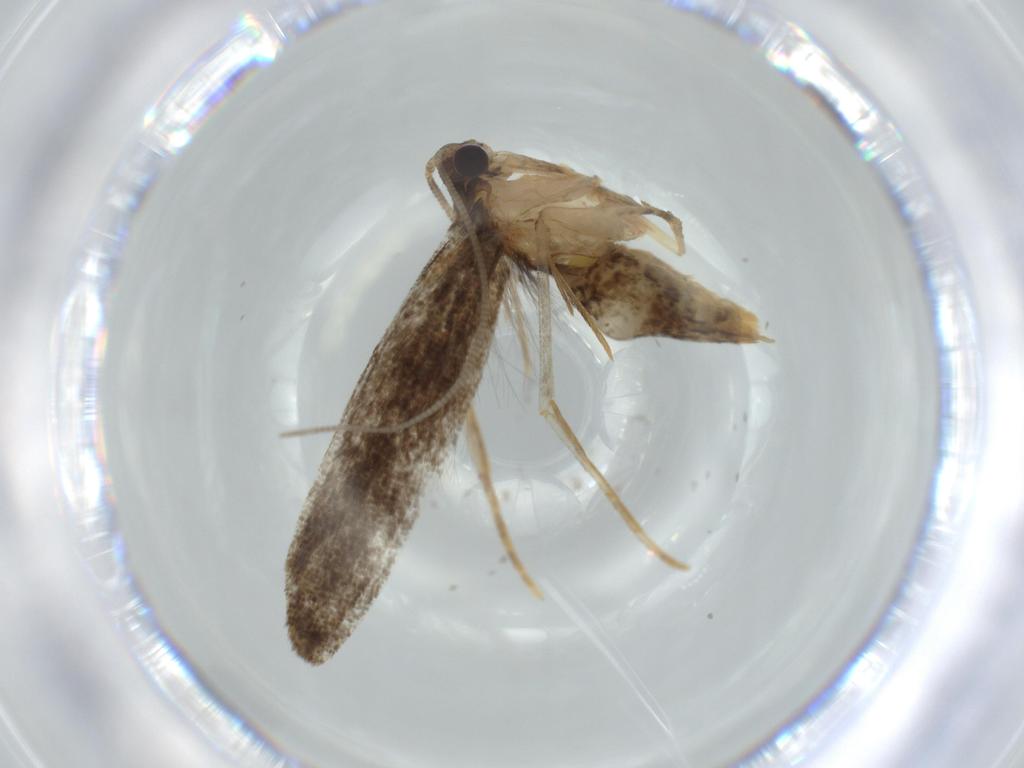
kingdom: Animalia
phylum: Arthropoda
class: Insecta
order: Lepidoptera
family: Tineidae
